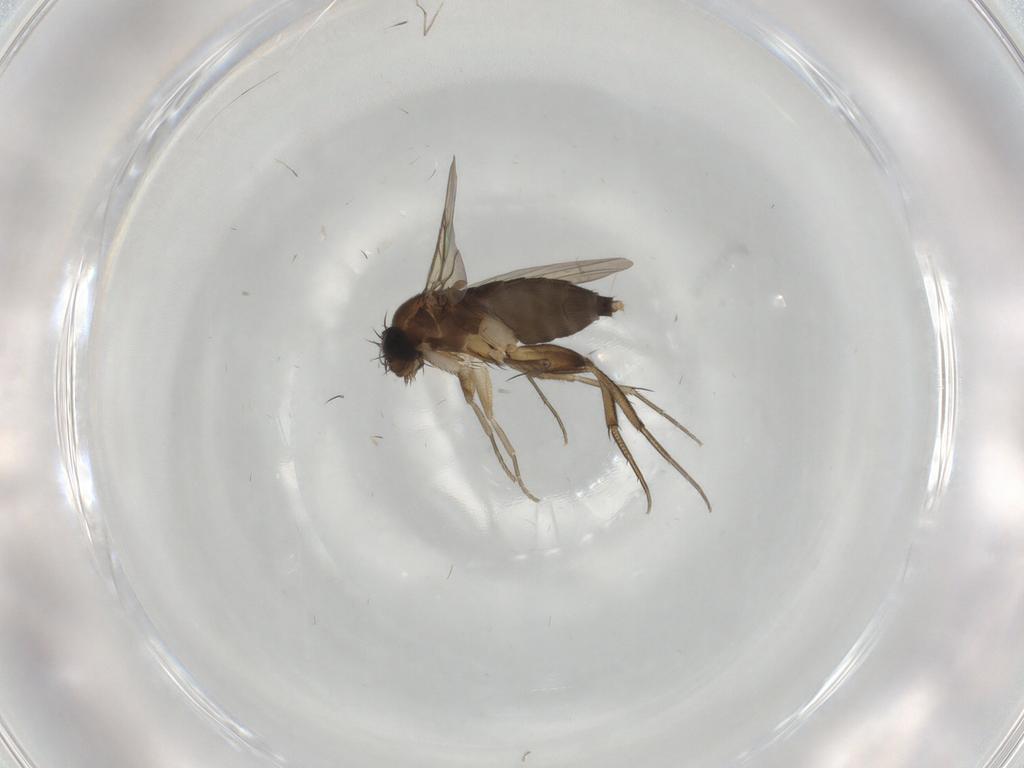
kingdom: Animalia
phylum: Arthropoda
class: Insecta
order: Diptera
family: Phoridae
